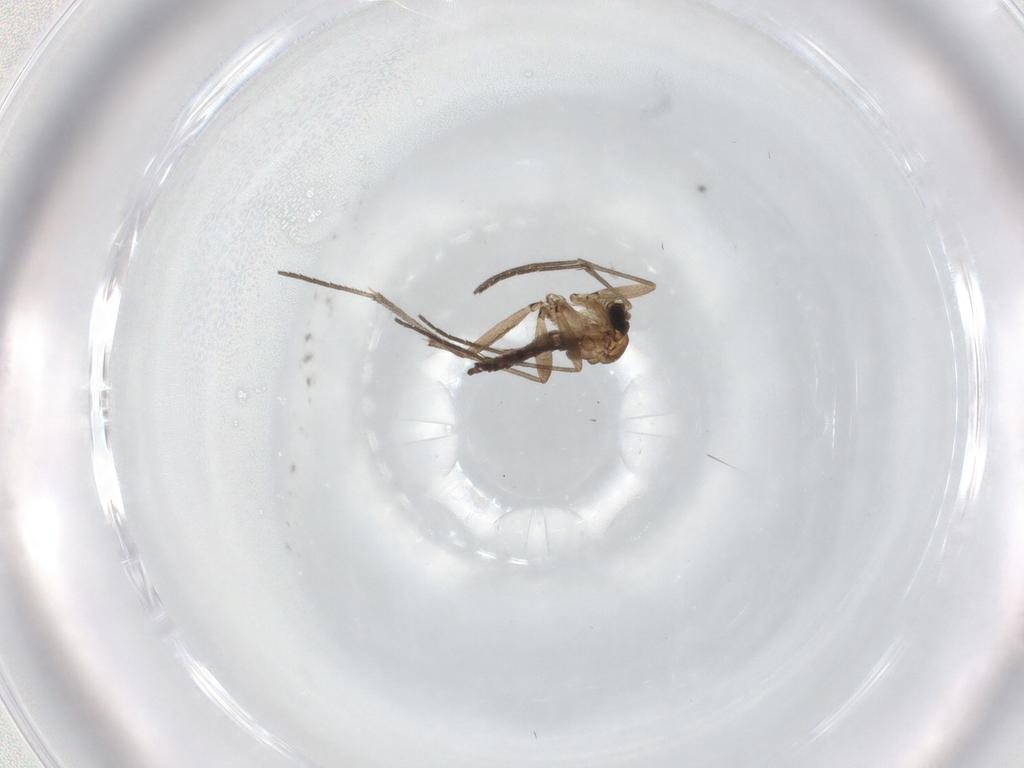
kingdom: Animalia
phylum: Arthropoda
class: Insecta
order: Diptera
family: Sciaridae
